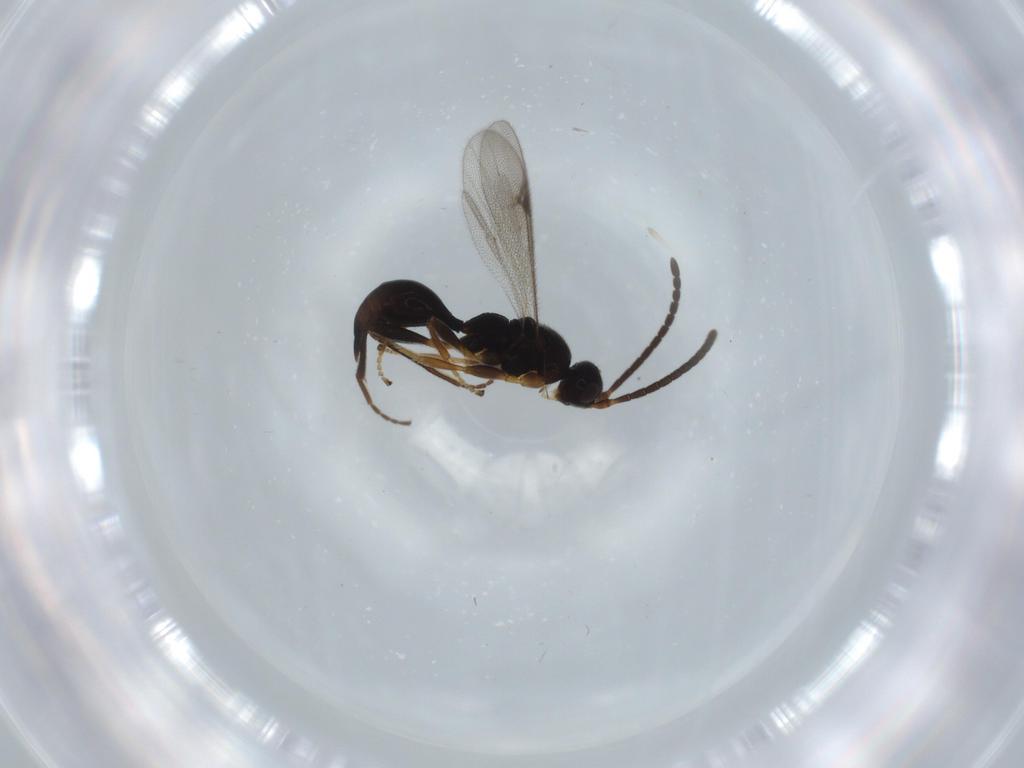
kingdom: Animalia
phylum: Arthropoda
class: Insecta
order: Hymenoptera
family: Proctotrupidae
